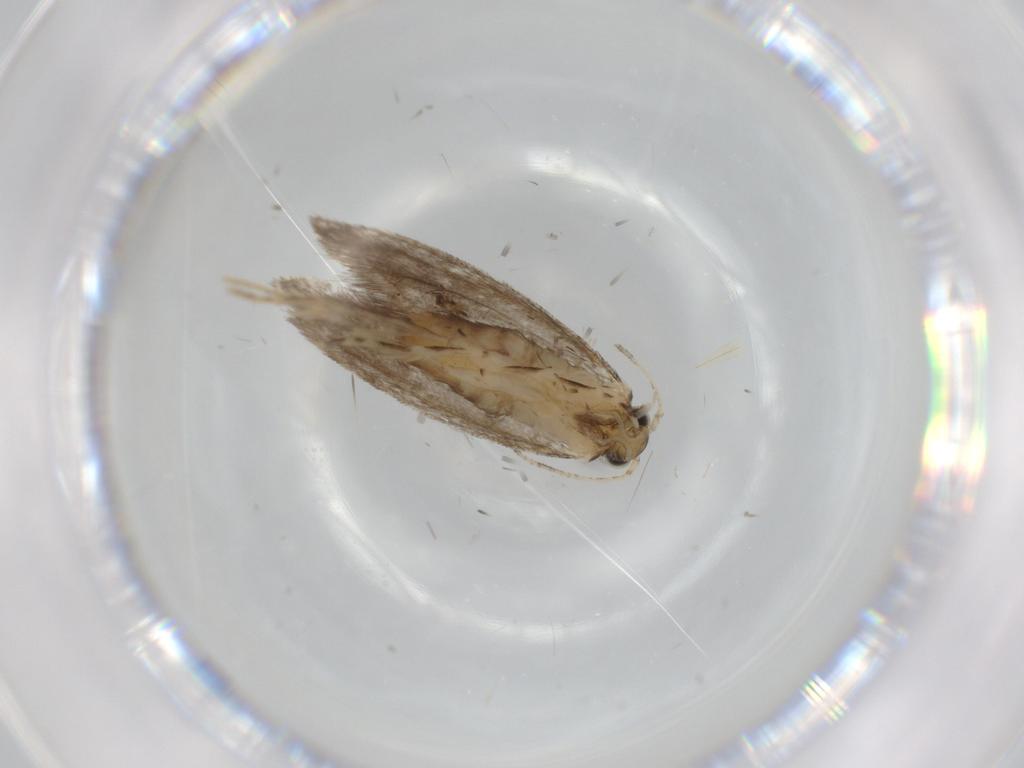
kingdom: Animalia
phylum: Arthropoda
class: Insecta
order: Lepidoptera
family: Tineidae
